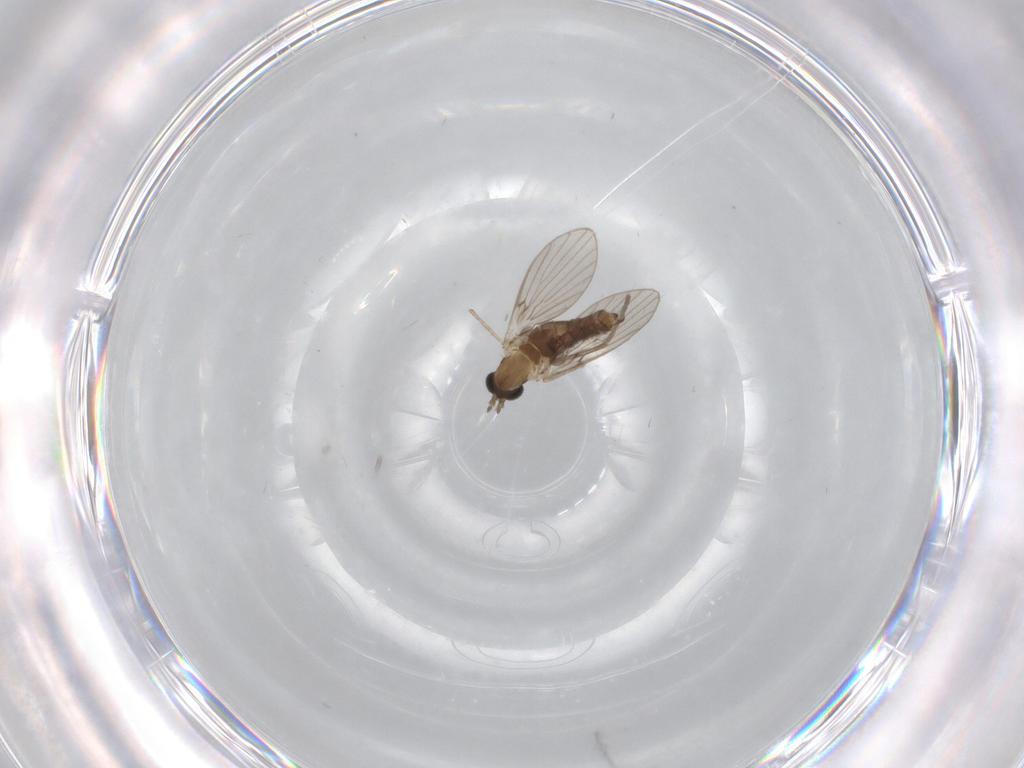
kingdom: Animalia
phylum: Arthropoda
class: Insecta
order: Diptera
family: Psychodidae
